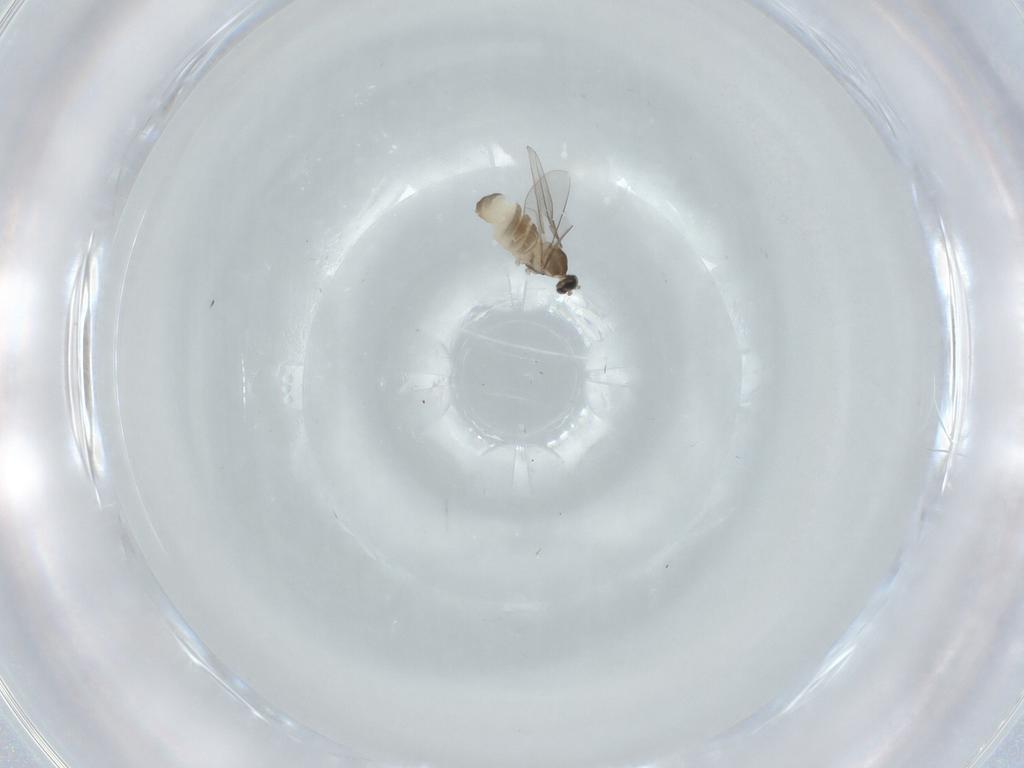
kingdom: Animalia
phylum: Arthropoda
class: Insecta
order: Diptera
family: Cecidomyiidae
